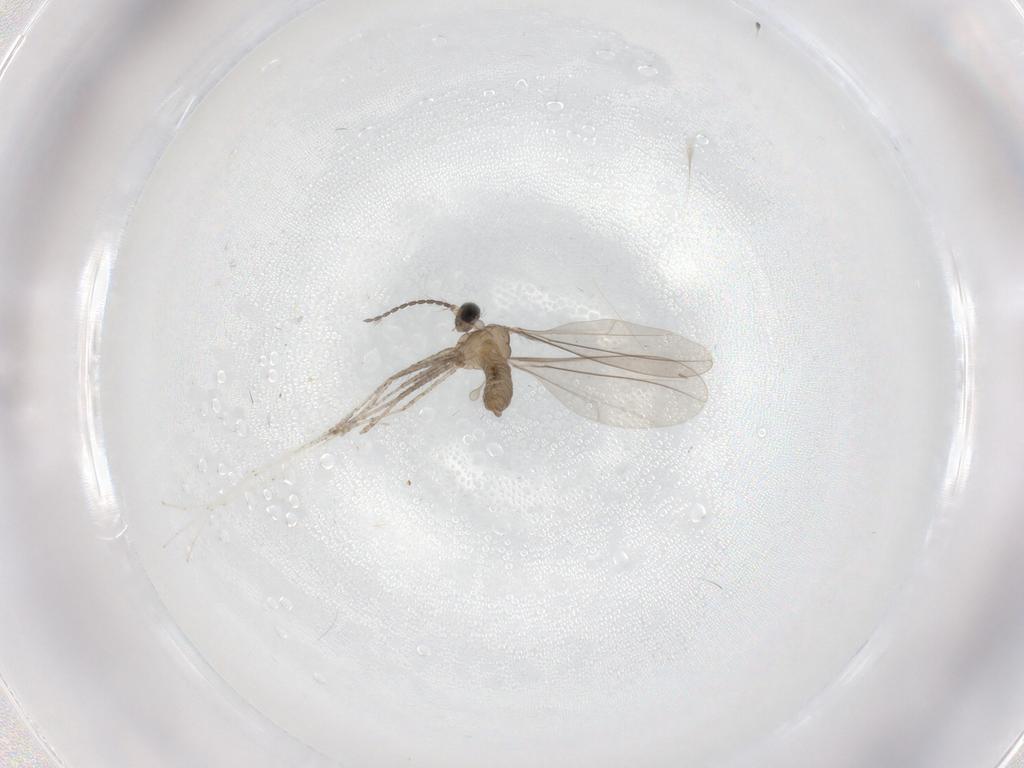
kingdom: Animalia
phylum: Arthropoda
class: Insecta
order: Diptera
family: Cecidomyiidae
